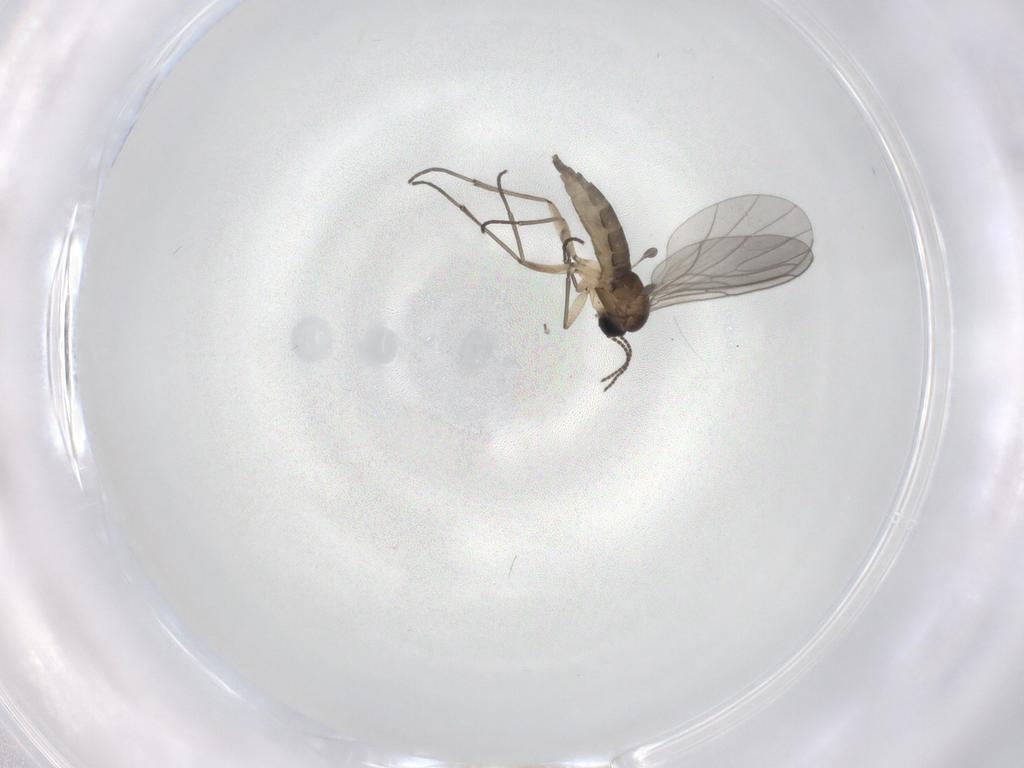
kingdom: Animalia
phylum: Arthropoda
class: Insecta
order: Diptera
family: Sciaridae
